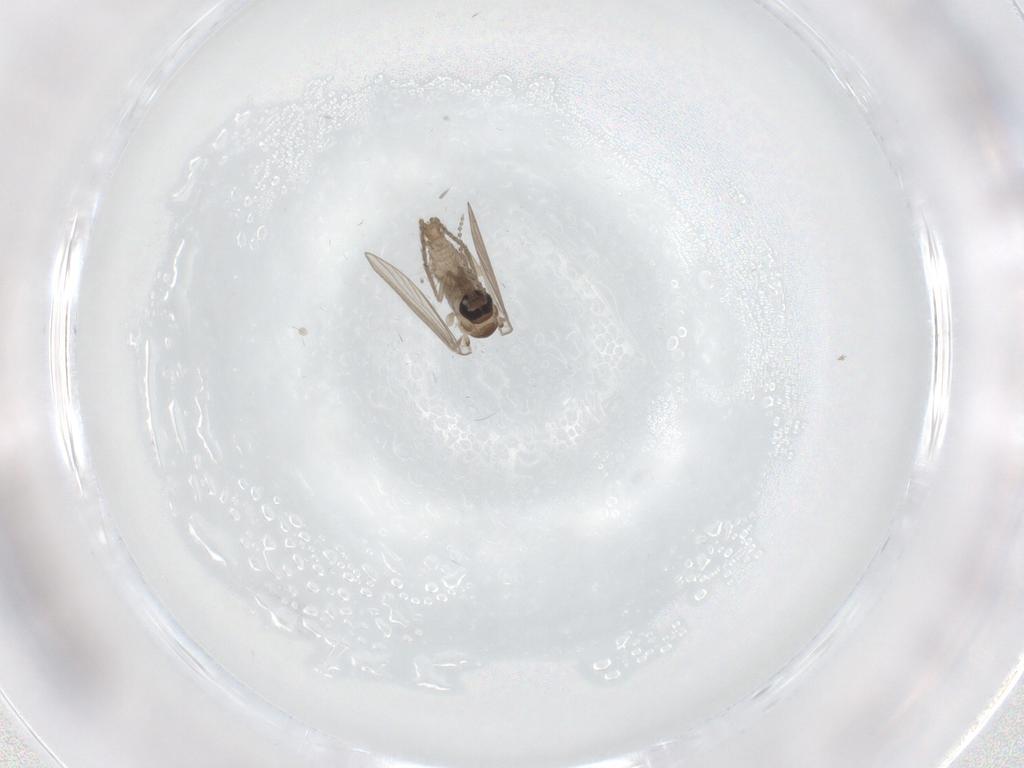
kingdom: Animalia
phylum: Arthropoda
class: Insecta
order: Diptera
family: Psychodidae
